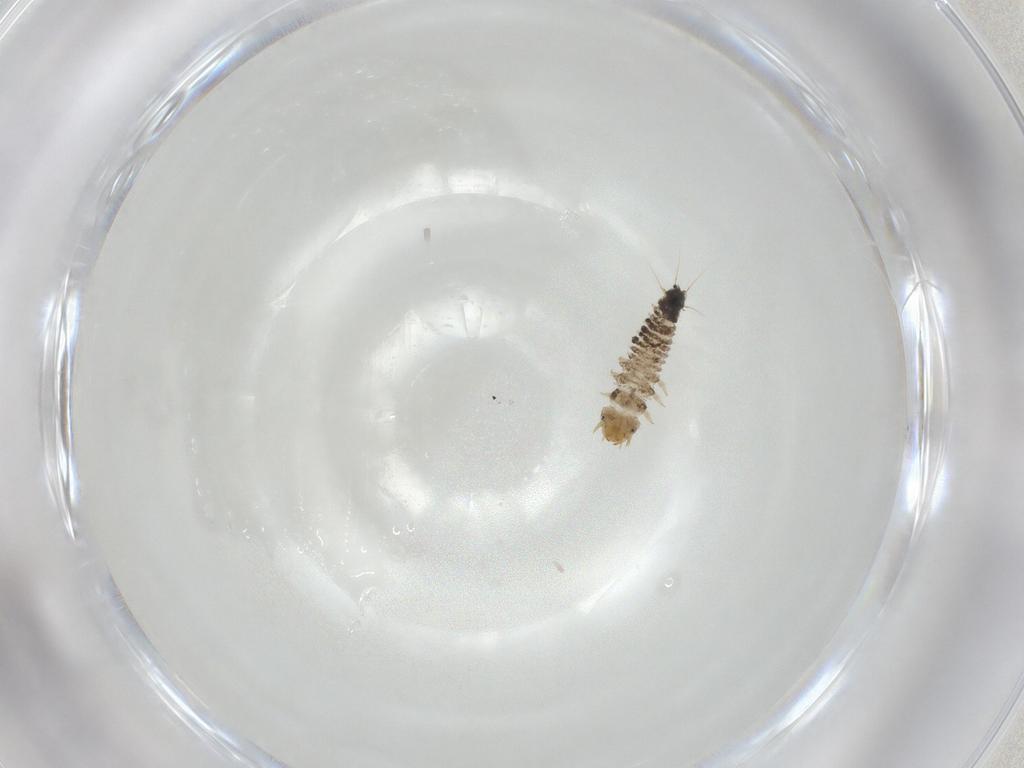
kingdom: Animalia
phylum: Arthropoda
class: Insecta
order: Coleoptera
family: Nitidulidae
